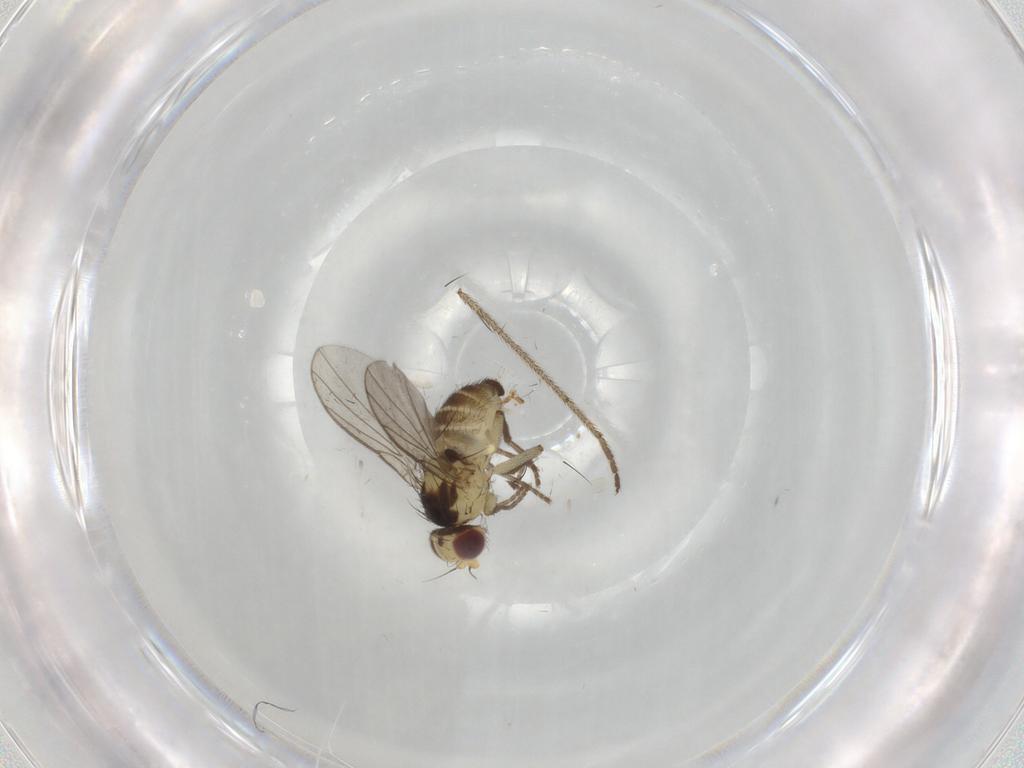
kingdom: Animalia
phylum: Arthropoda
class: Insecta
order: Diptera
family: Agromyzidae
